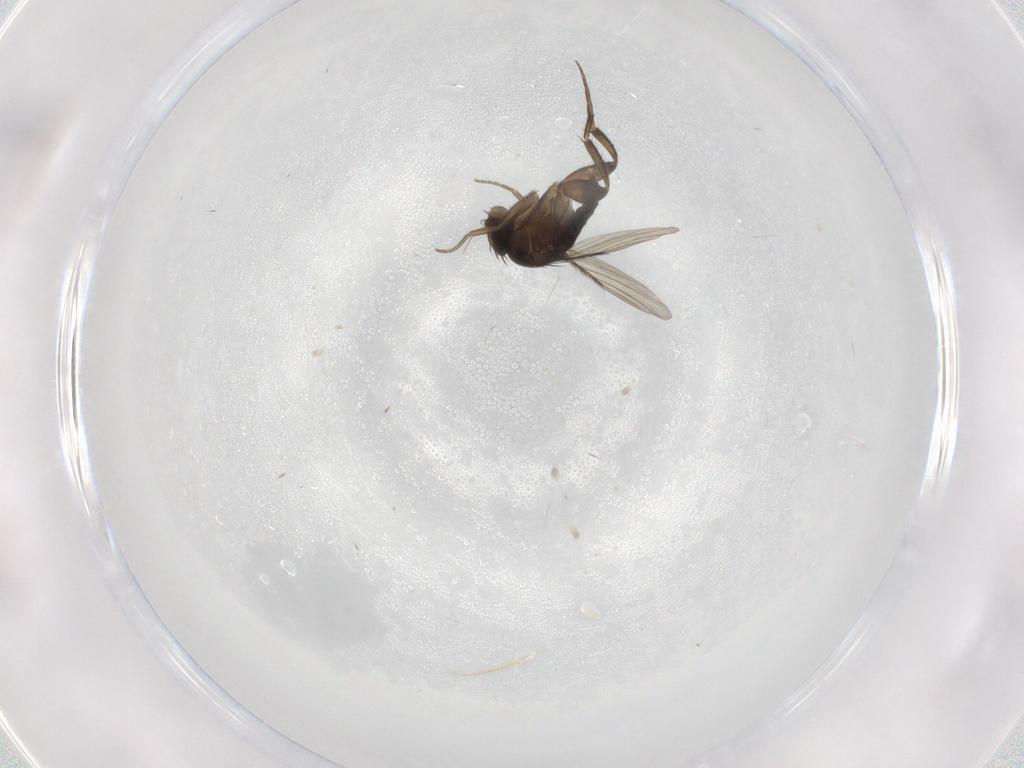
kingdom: Animalia
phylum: Arthropoda
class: Insecta
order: Diptera
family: Phoridae
